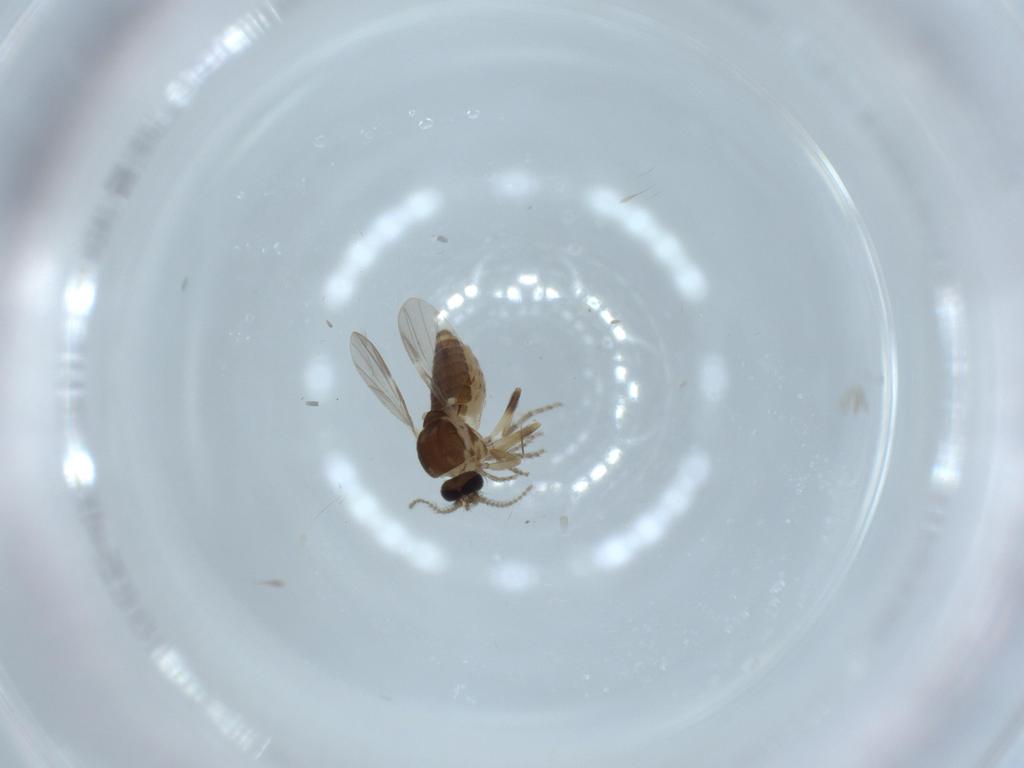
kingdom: Animalia
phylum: Arthropoda
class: Insecta
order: Diptera
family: Ceratopogonidae
